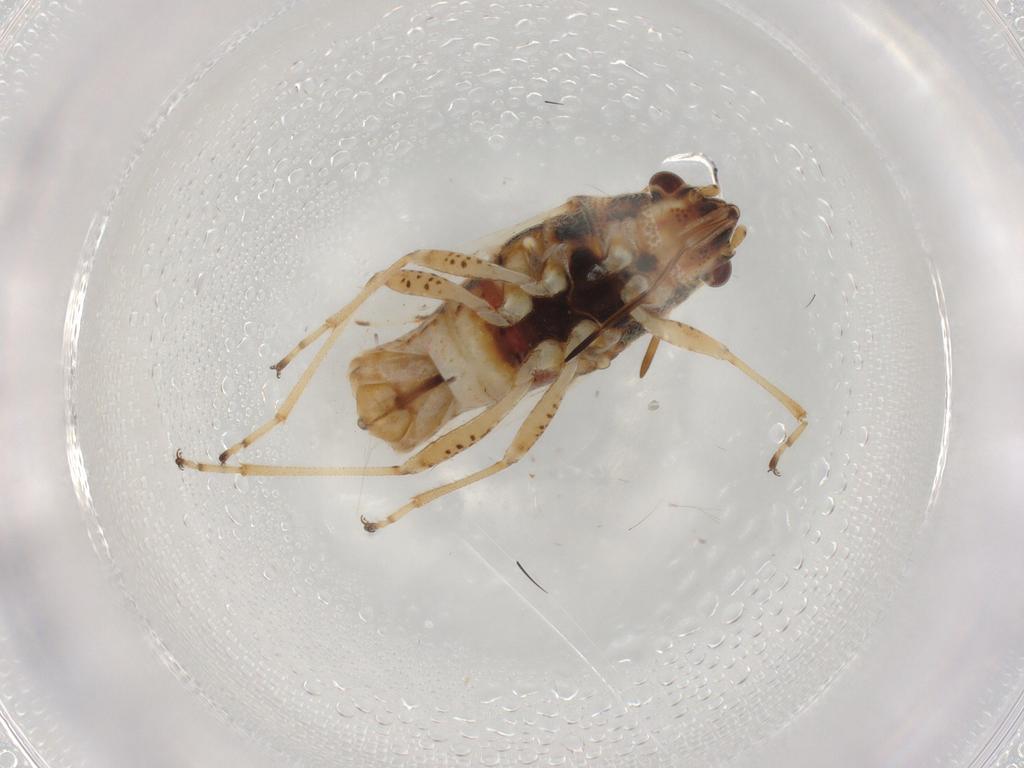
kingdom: Animalia
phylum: Arthropoda
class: Insecta
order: Hemiptera
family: Lygaeidae
